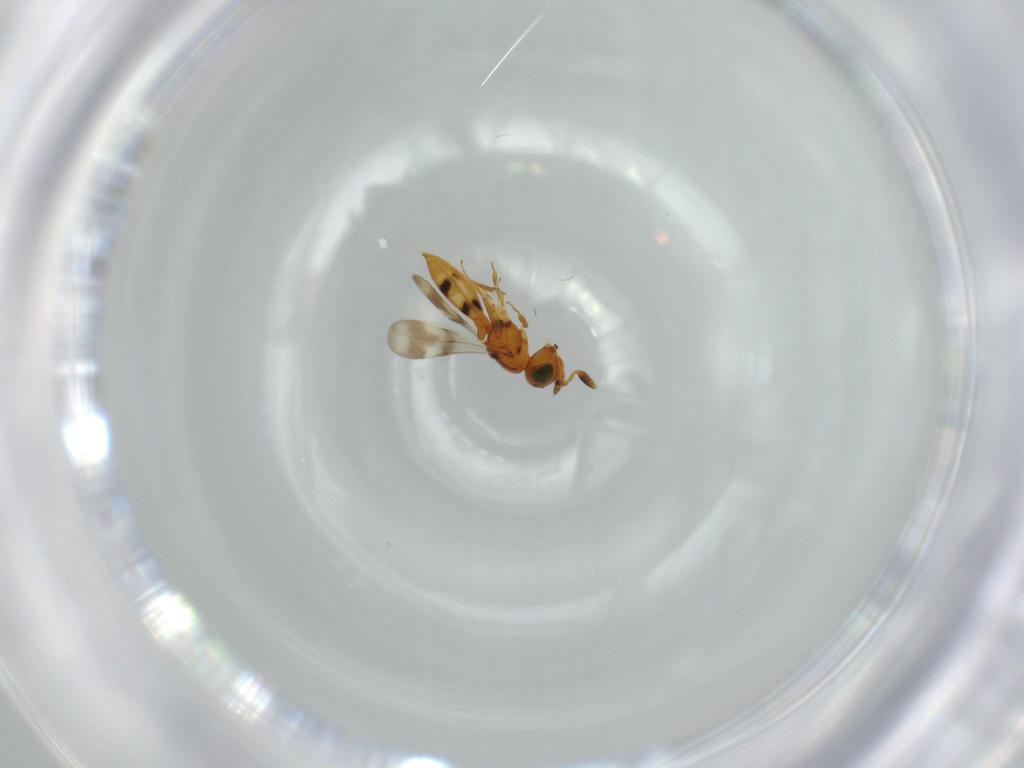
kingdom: Animalia
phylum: Arthropoda
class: Insecta
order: Hymenoptera
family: Scelionidae
